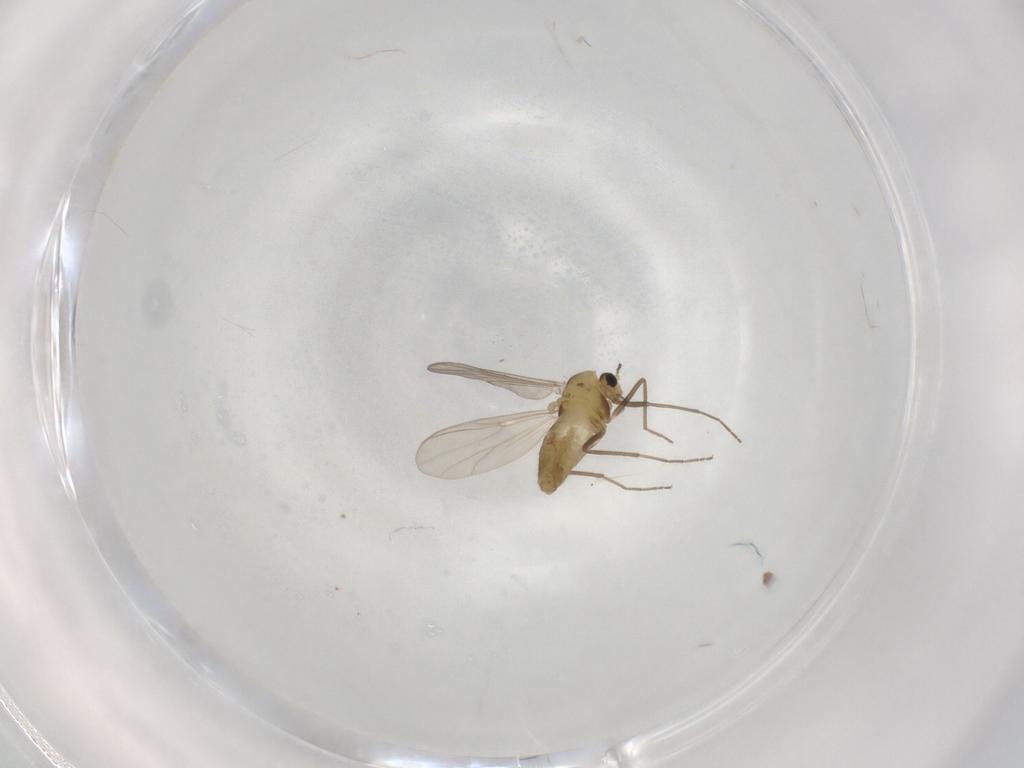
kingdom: Animalia
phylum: Arthropoda
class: Insecta
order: Diptera
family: Chironomidae
